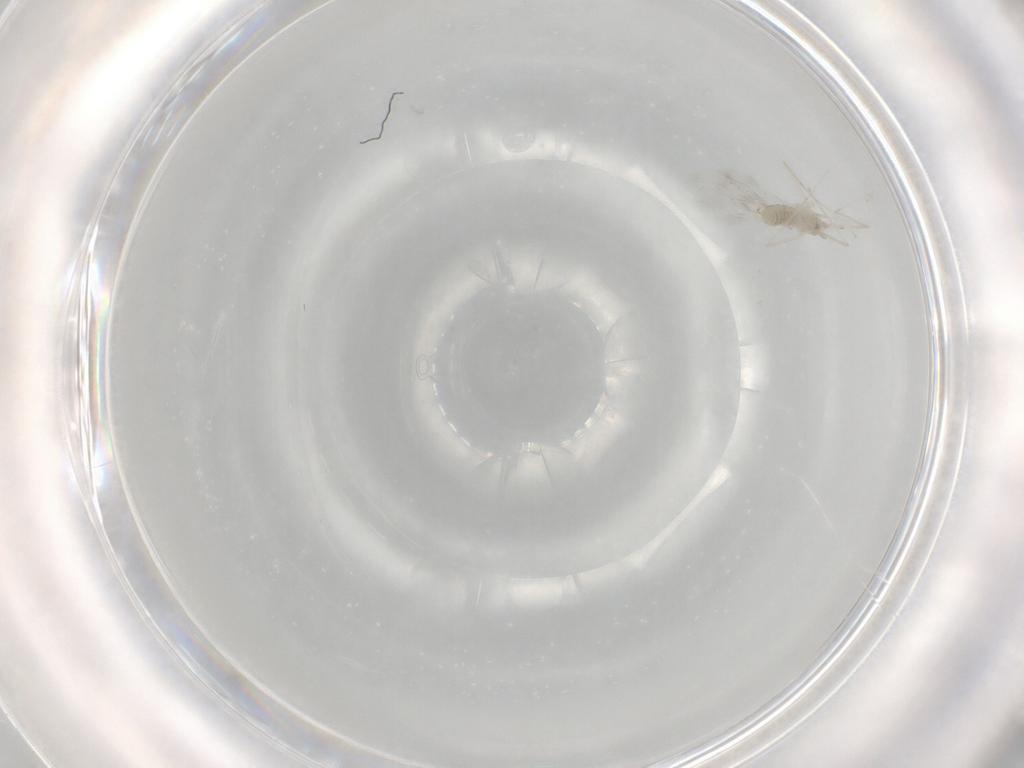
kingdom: Animalia
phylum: Arthropoda
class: Insecta
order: Diptera
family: Cecidomyiidae
